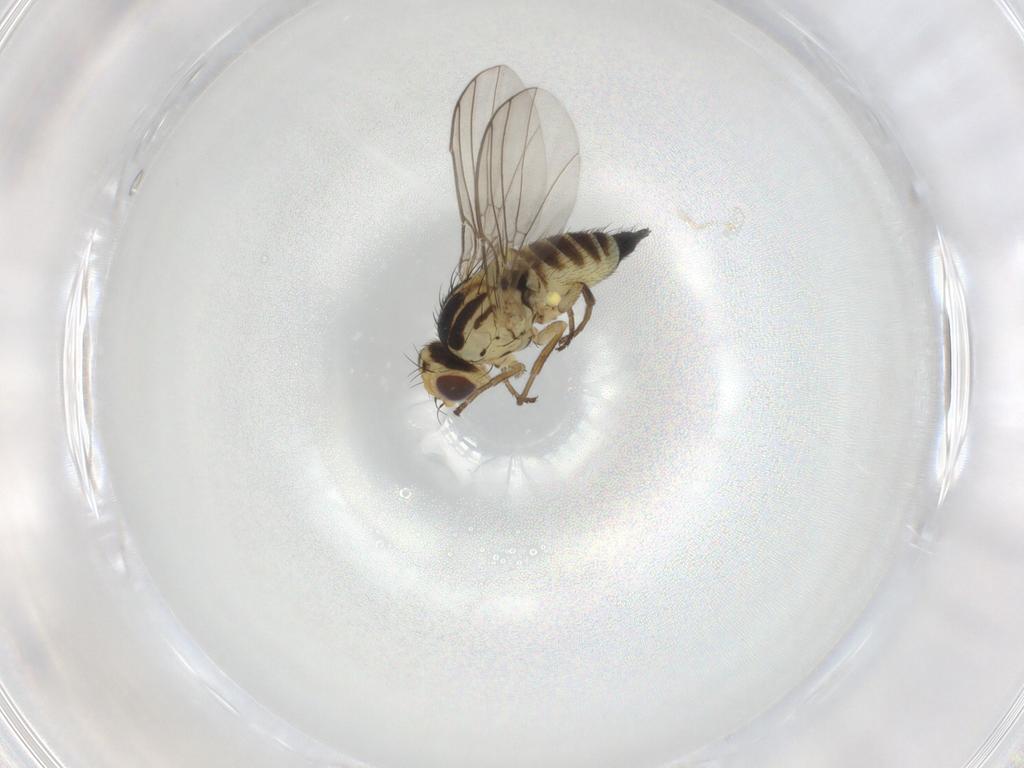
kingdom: Animalia
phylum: Arthropoda
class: Insecta
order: Diptera
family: Agromyzidae
